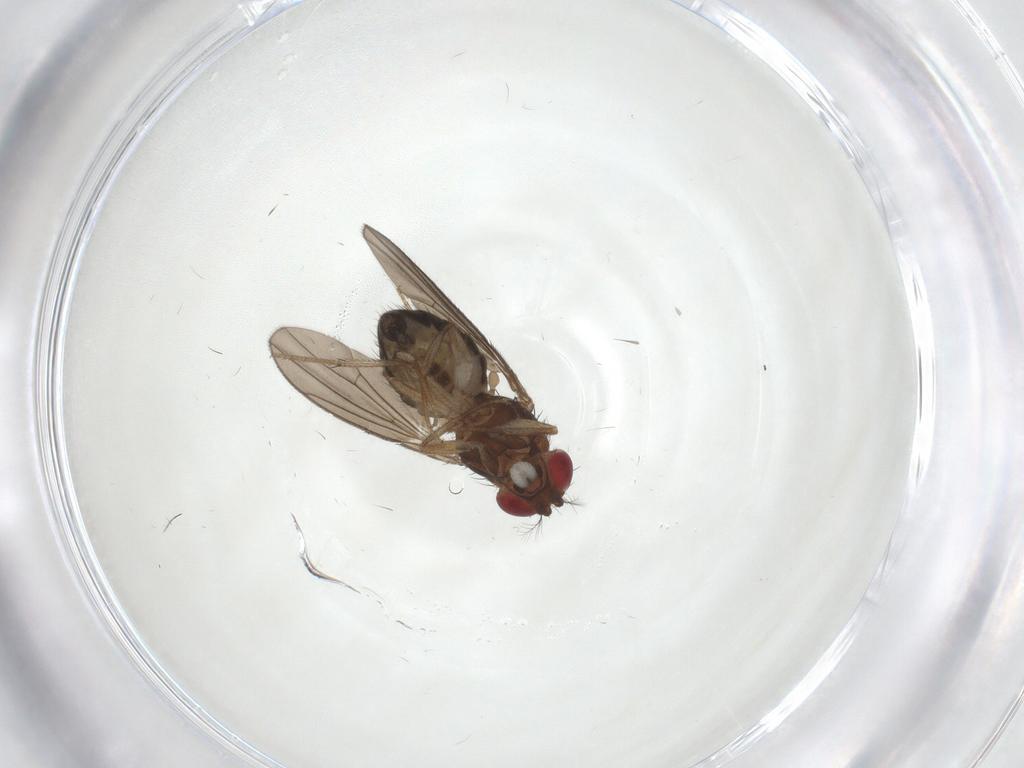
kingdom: Animalia
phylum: Arthropoda
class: Insecta
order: Diptera
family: Drosophilidae
